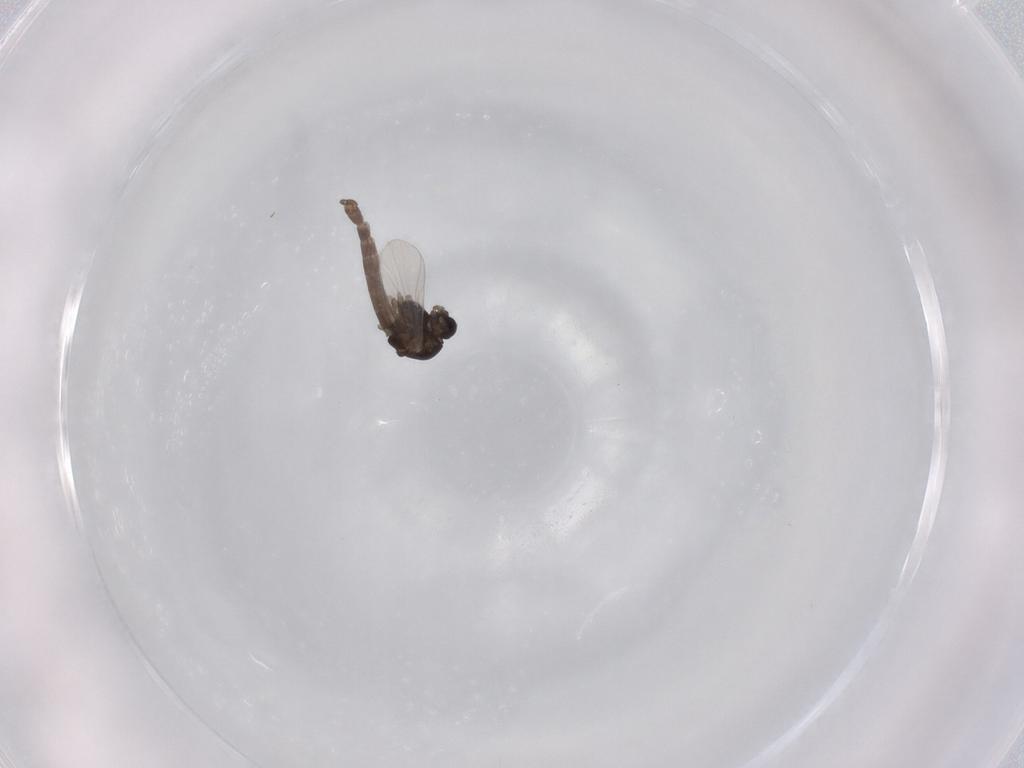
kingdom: Animalia
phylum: Arthropoda
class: Insecta
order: Diptera
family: Chironomidae
